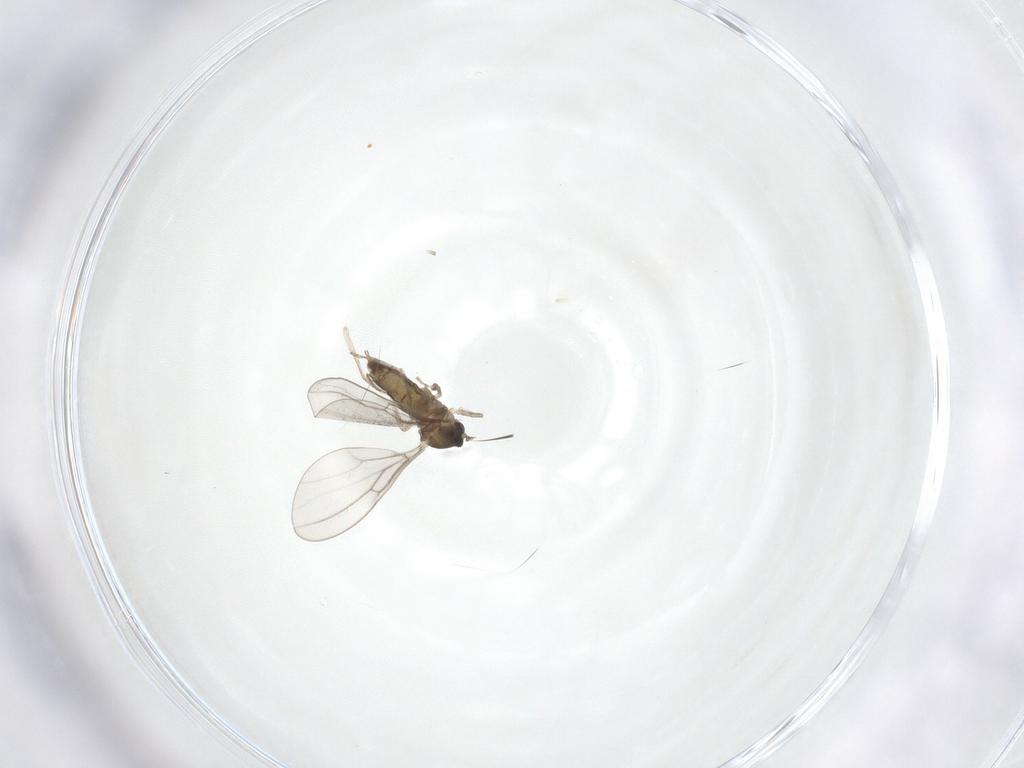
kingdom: Animalia
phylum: Arthropoda
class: Insecta
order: Diptera
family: Cecidomyiidae
